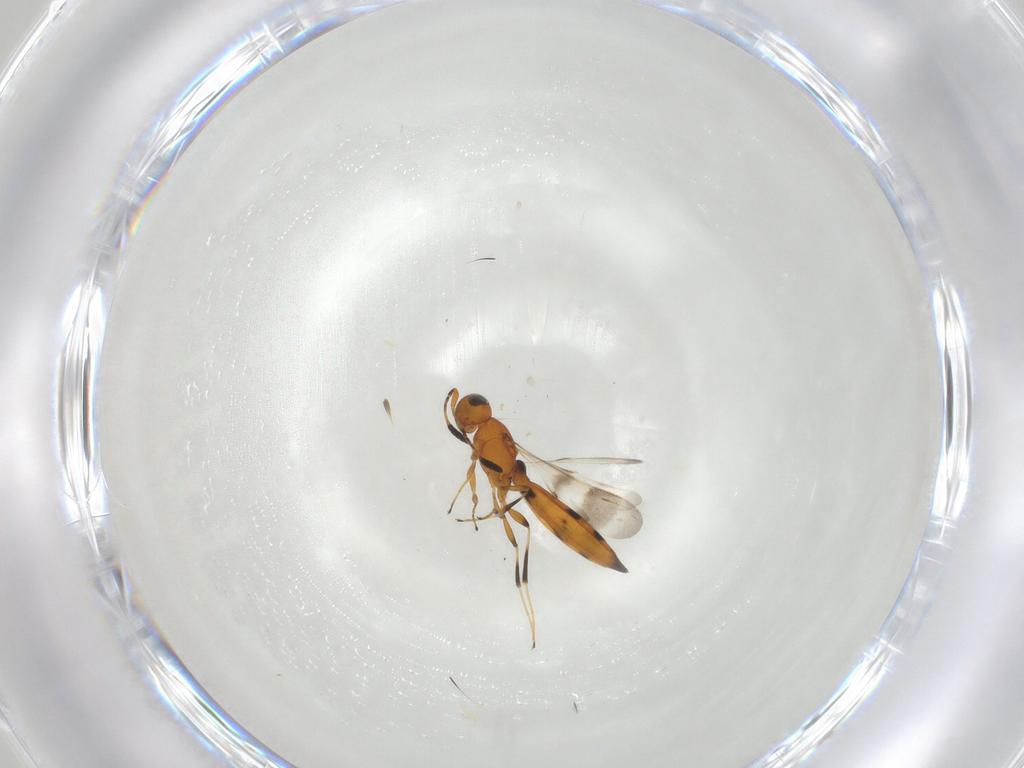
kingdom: Animalia
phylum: Arthropoda
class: Insecta
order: Hymenoptera
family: Scelionidae
